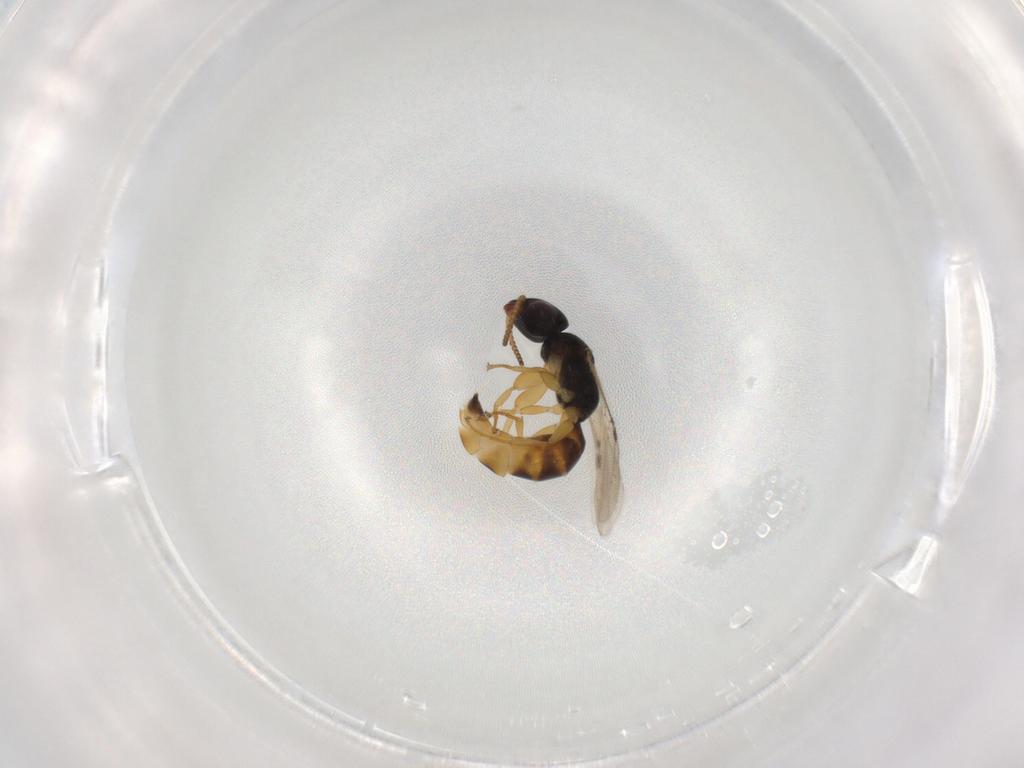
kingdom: Animalia
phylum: Arthropoda
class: Insecta
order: Hymenoptera
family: Bethylidae
